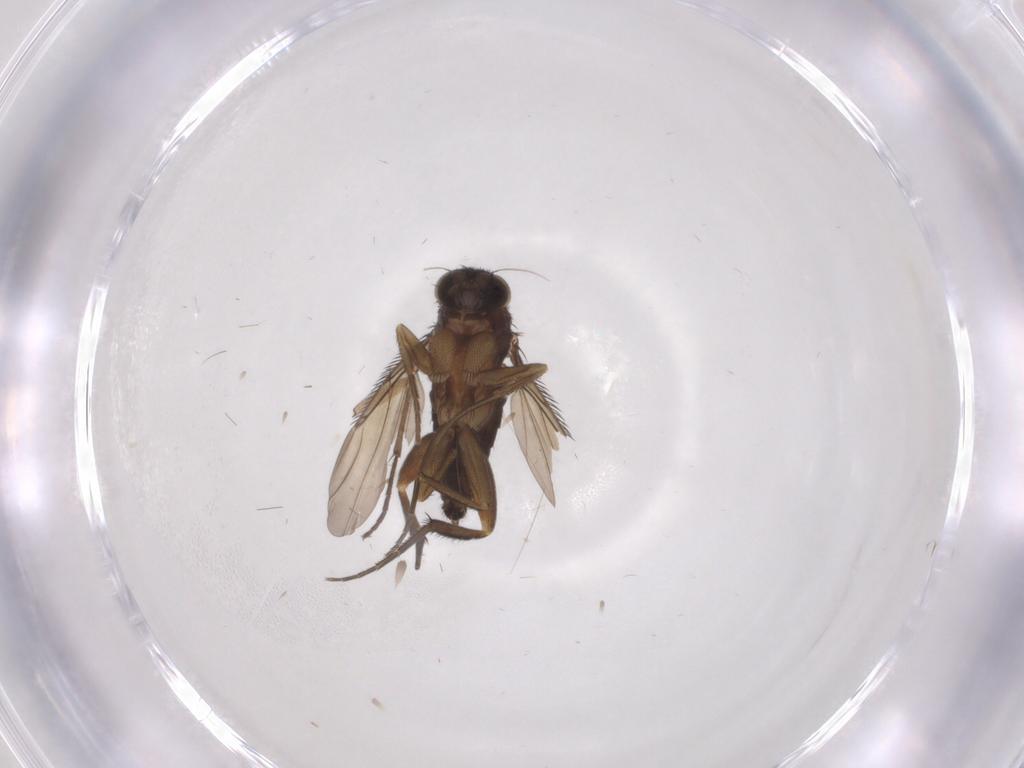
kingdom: Animalia
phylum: Arthropoda
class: Insecta
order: Diptera
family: Phoridae
